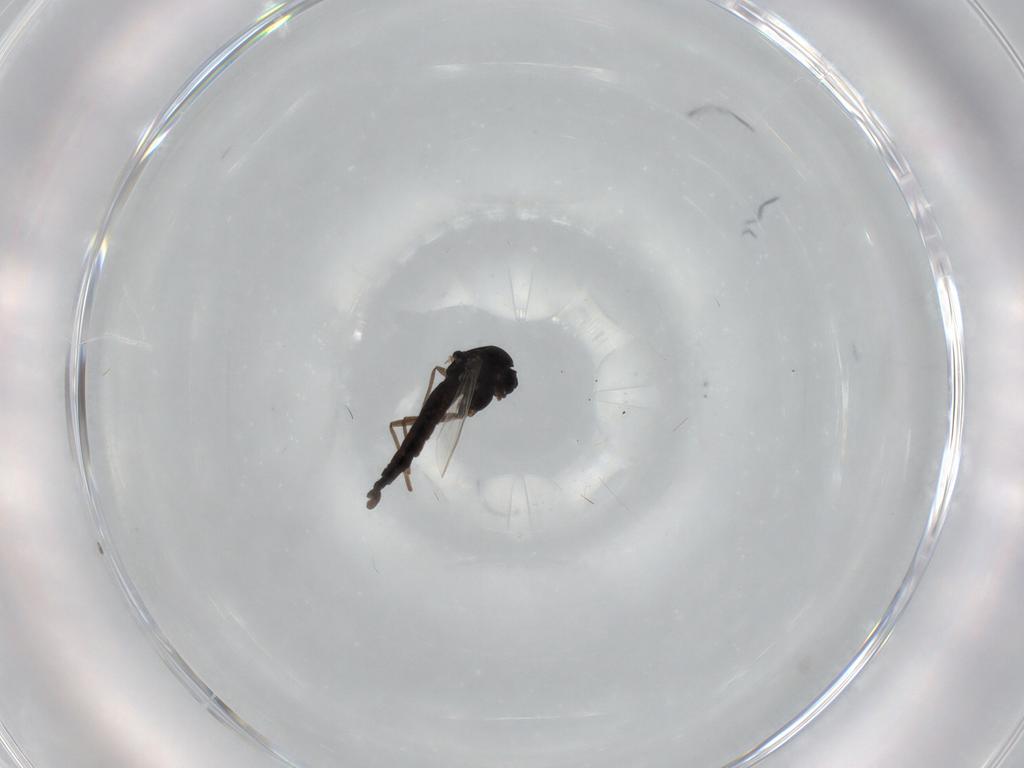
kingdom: Animalia
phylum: Arthropoda
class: Insecta
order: Diptera
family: Chironomidae
